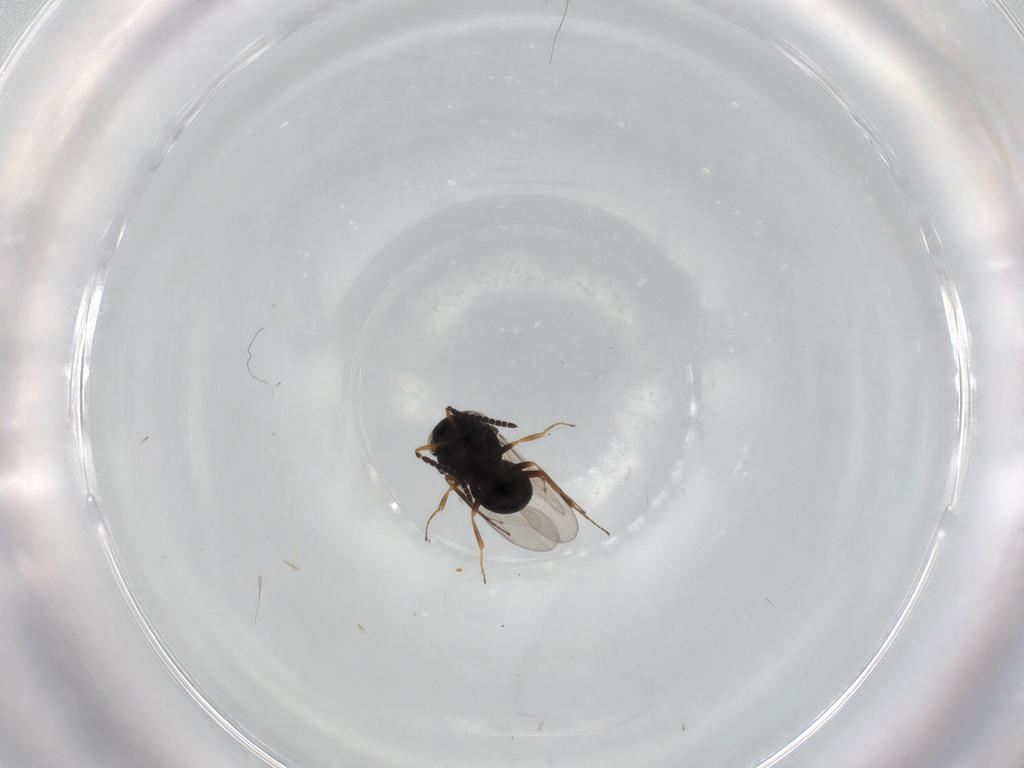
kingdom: Animalia
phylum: Arthropoda
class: Insecta
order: Hymenoptera
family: Scelionidae
